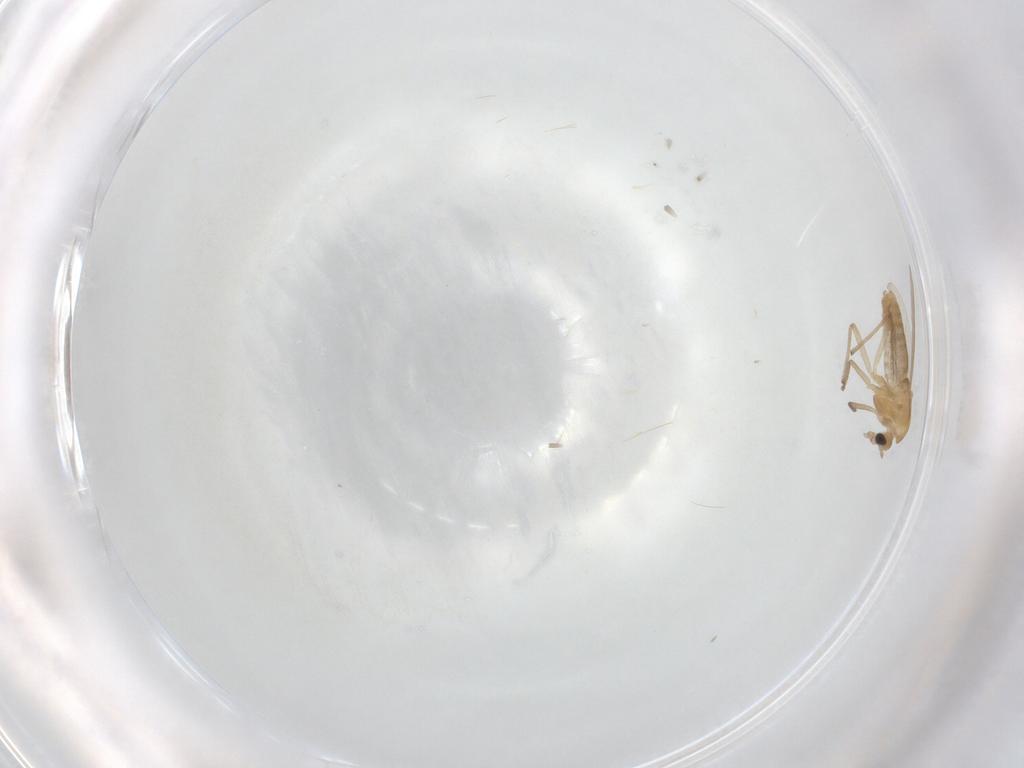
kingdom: Animalia
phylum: Arthropoda
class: Insecta
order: Diptera
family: Chironomidae
